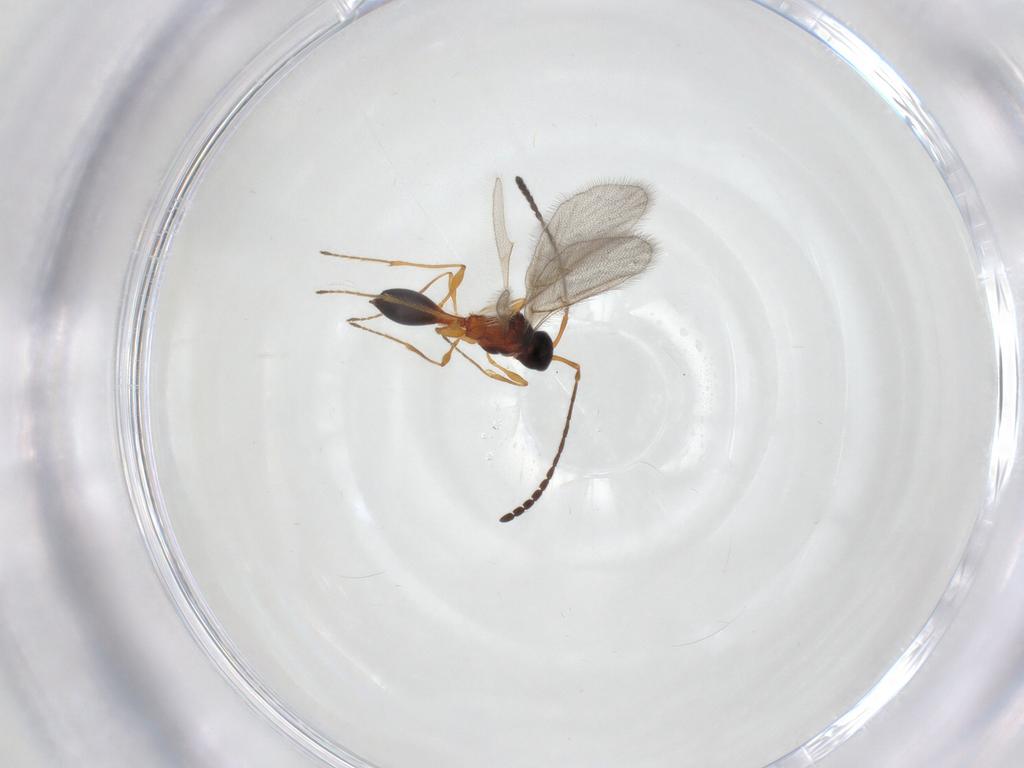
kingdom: Animalia
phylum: Arthropoda
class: Insecta
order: Hymenoptera
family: Diapriidae
